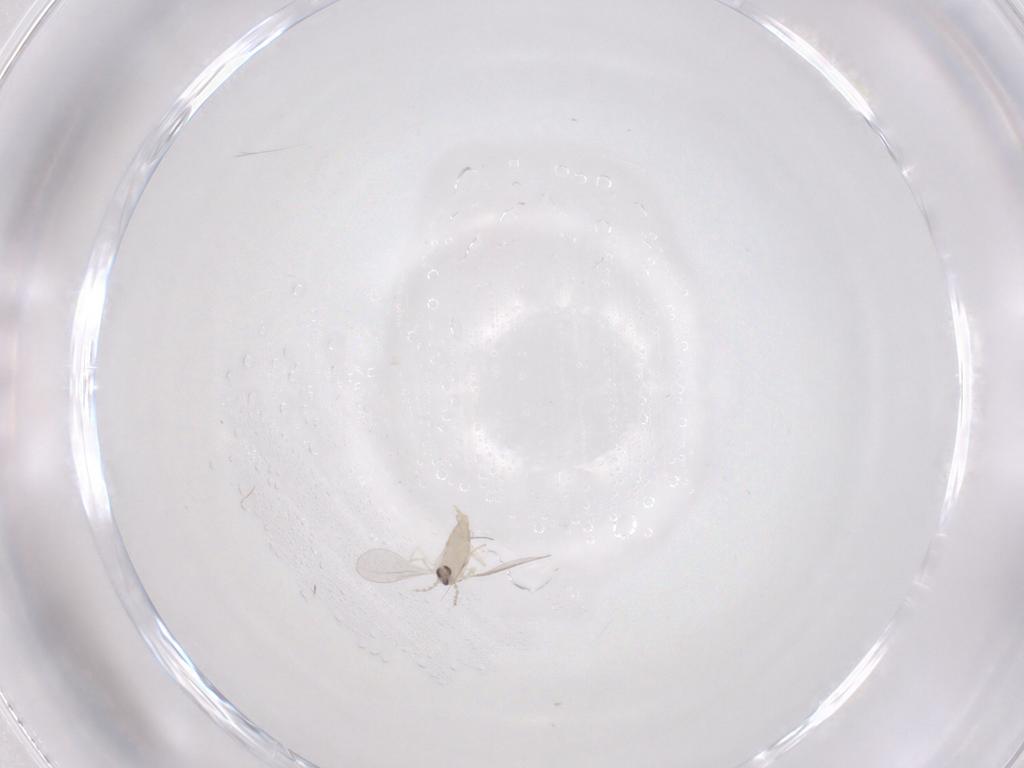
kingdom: Animalia
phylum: Arthropoda
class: Insecta
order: Diptera
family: Cecidomyiidae
